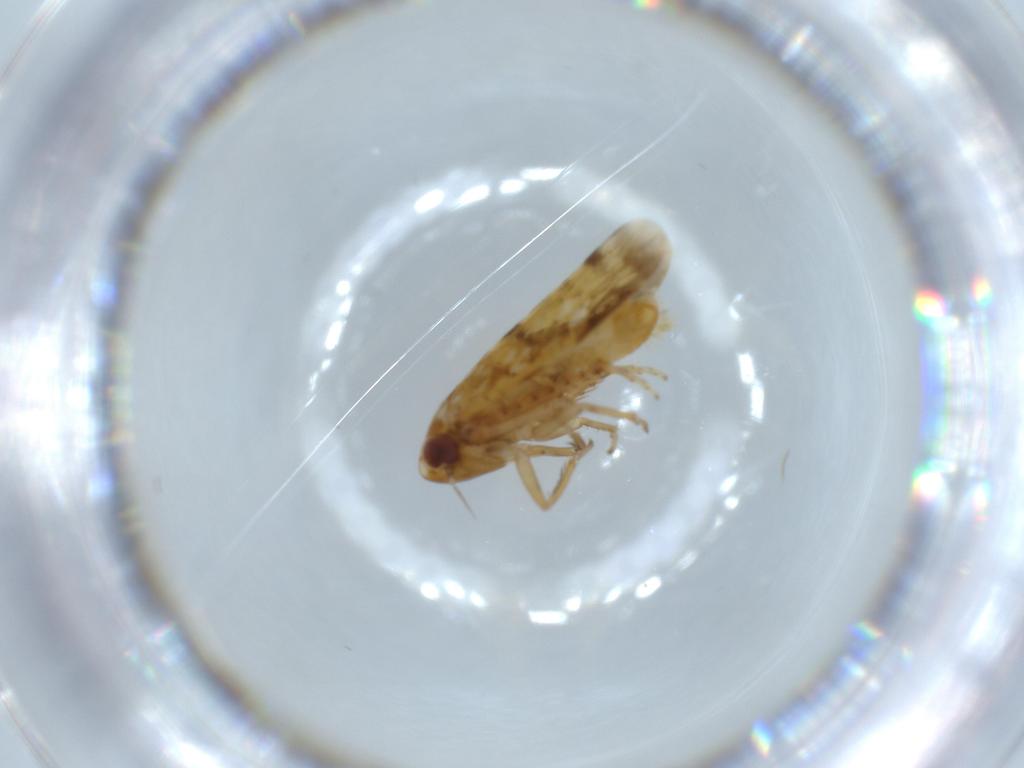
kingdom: Animalia
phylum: Arthropoda
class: Insecta
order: Hemiptera
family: Cicadellidae
